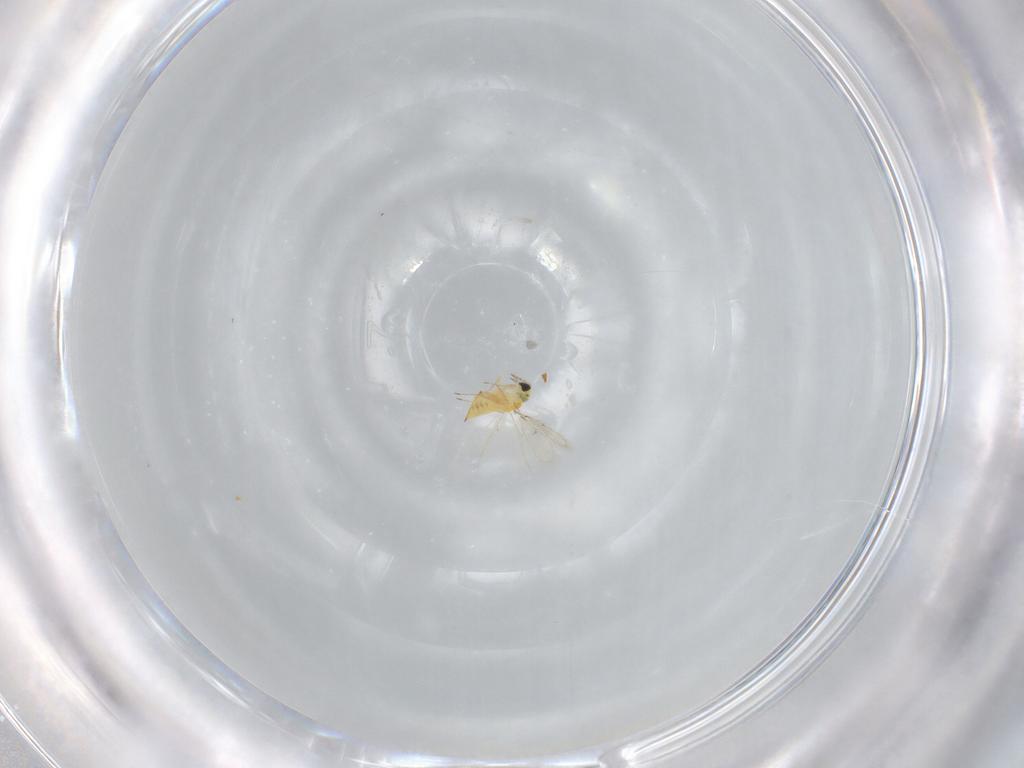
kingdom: Animalia
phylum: Arthropoda
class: Insecta
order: Hymenoptera
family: Trichogrammatidae
